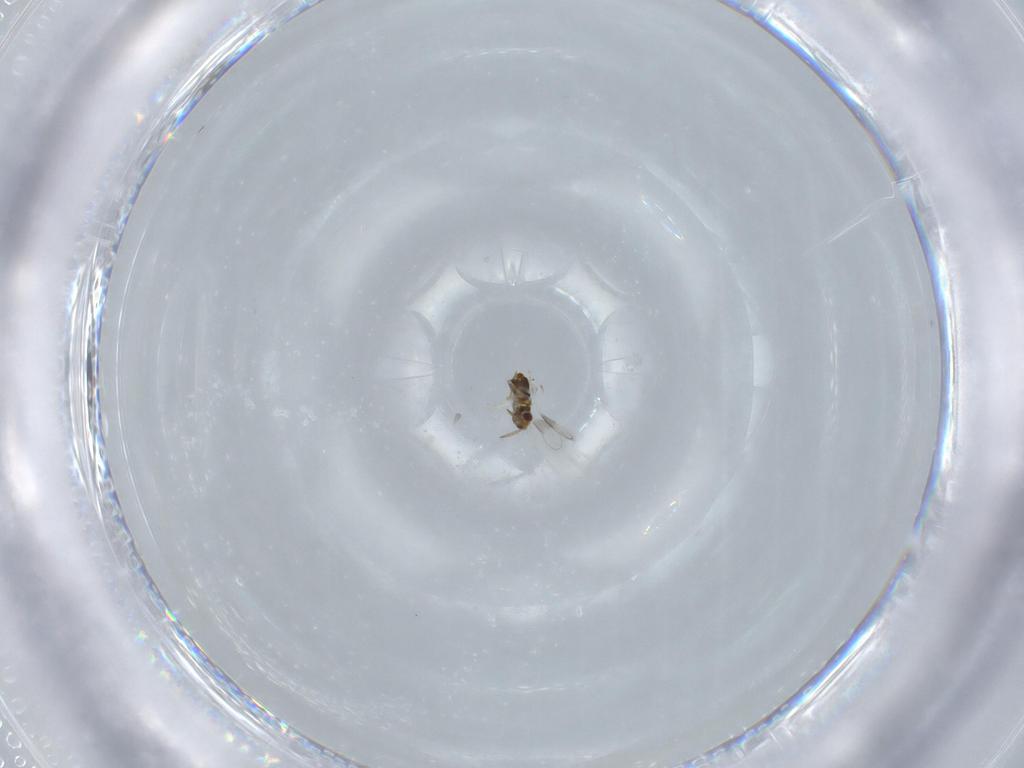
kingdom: Animalia
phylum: Arthropoda
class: Insecta
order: Hymenoptera
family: Aphelinidae
